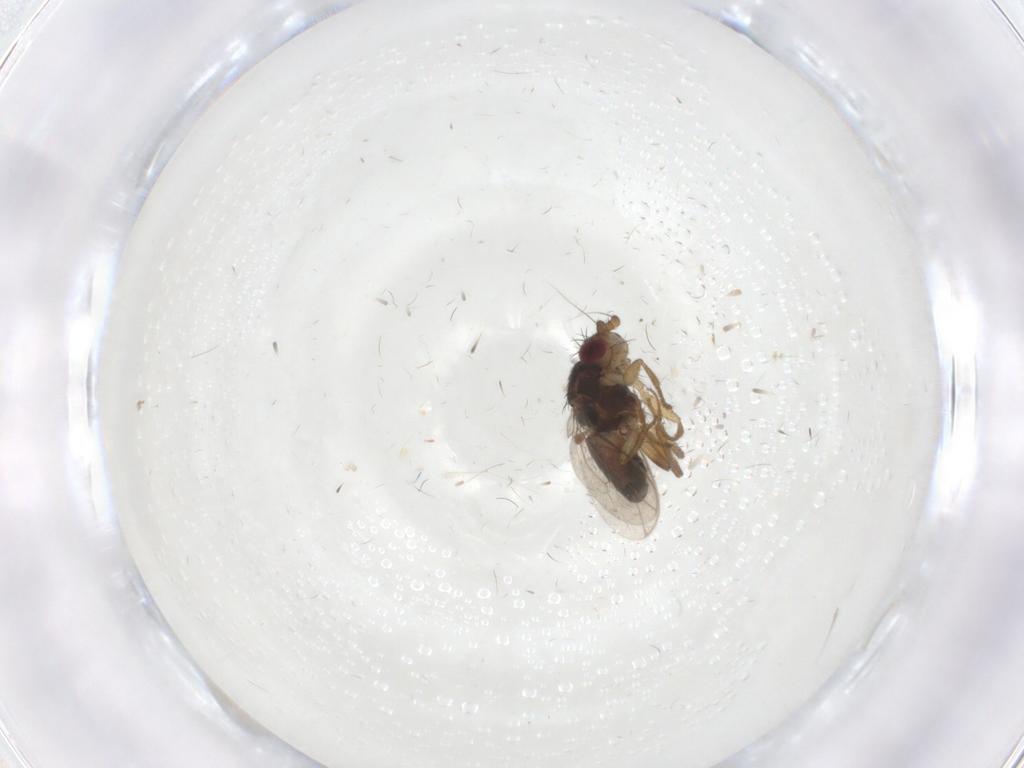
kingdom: Animalia
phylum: Arthropoda
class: Insecta
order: Diptera
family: Sphaeroceridae
